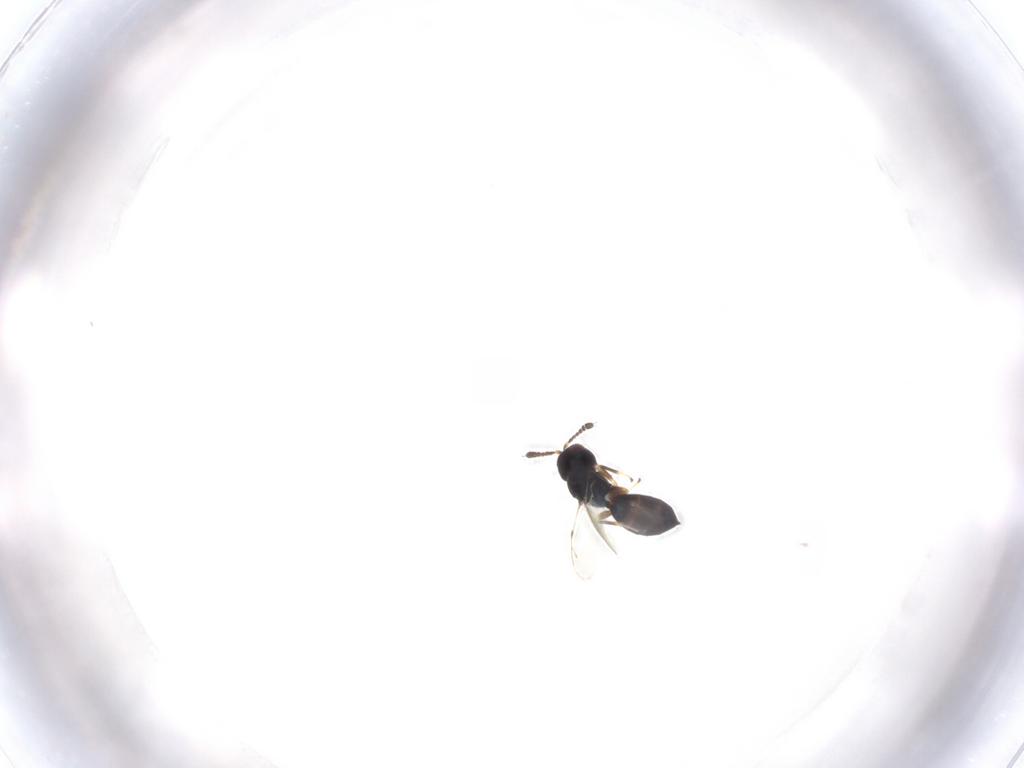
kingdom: Animalia
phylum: Arthropoda
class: Insecta
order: Hymenoptera
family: Pteromalidae
